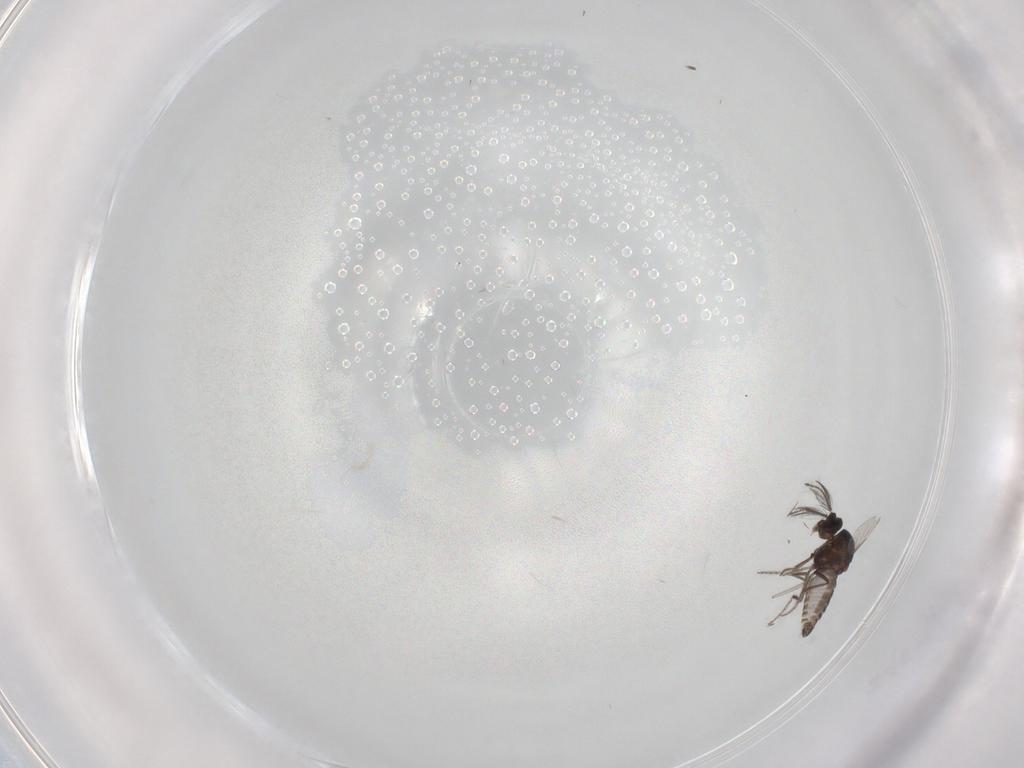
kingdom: Animalia
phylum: Arthropoda
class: Insecta
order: Diptera
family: Ceratopogonidae
